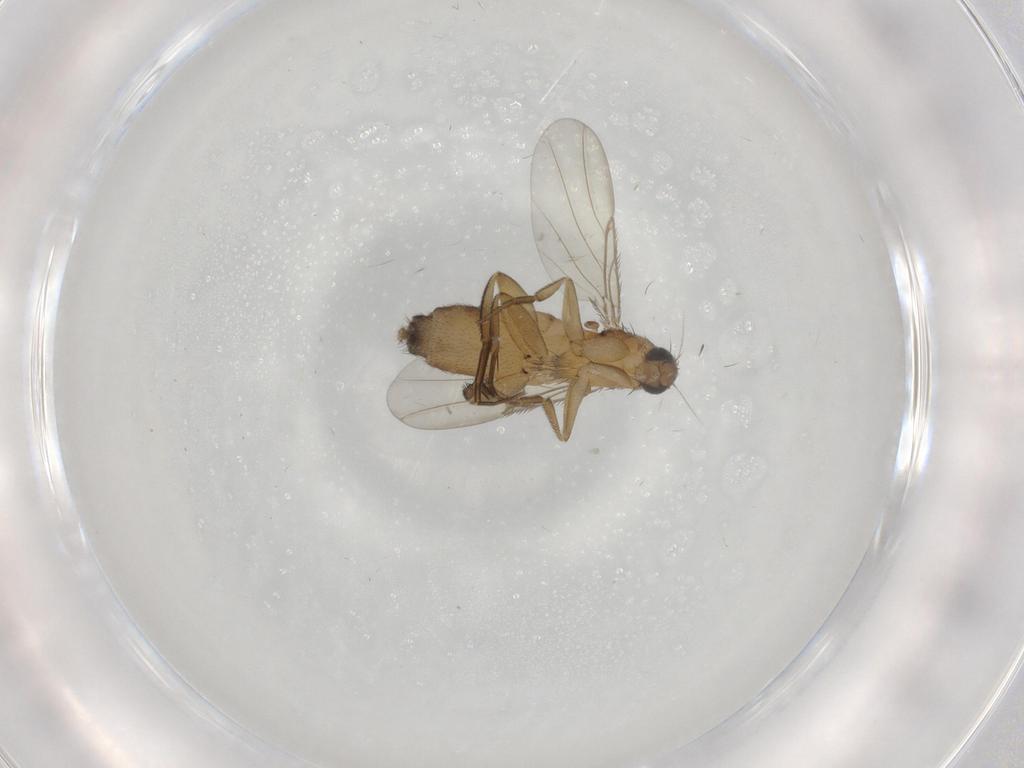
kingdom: Animalia
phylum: Arthropoda
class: Insecta
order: Diptera
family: Phoridae
